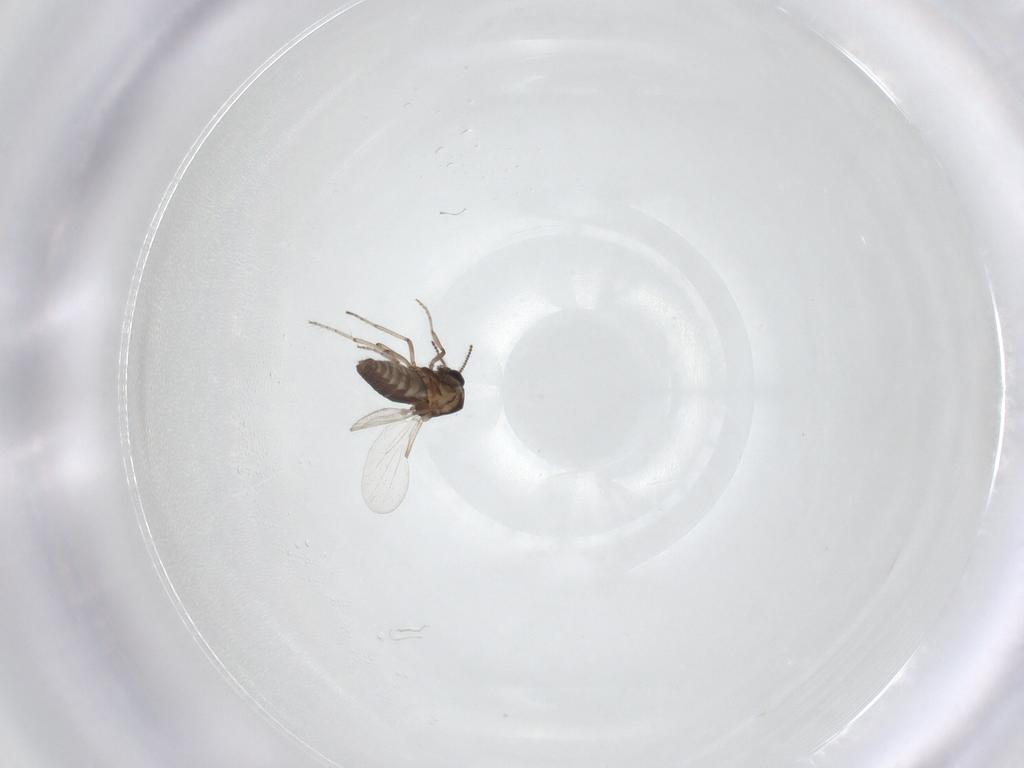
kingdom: Animalia
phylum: Arthropoda
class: Insecta
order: Diptera
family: Ceratopogonidae
